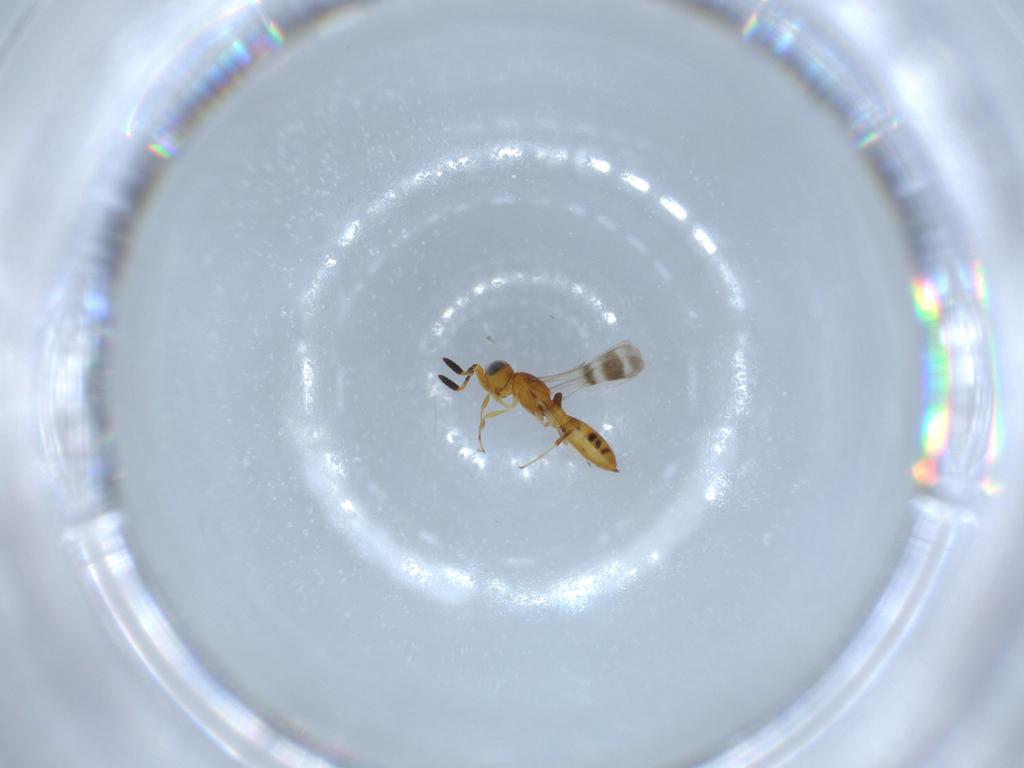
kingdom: Animalia
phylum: Arthropoda
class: Insecta
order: Hymenoptera
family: Scelionidae
